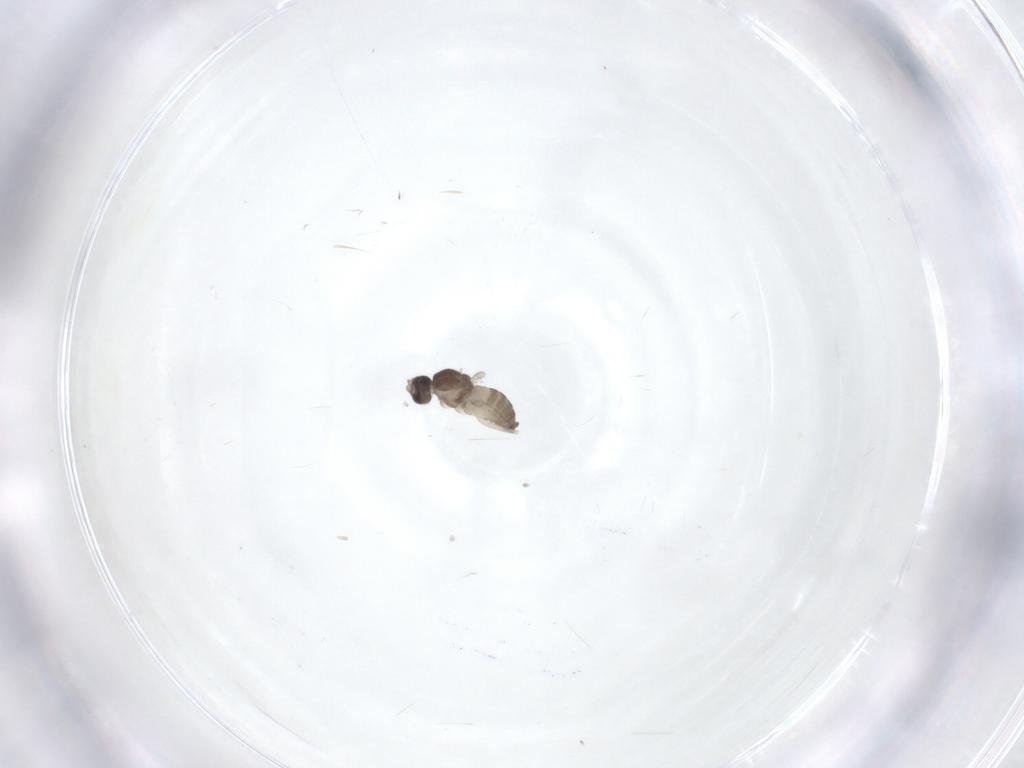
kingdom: Animalia
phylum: Arthropoda
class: Insecta
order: Diptera
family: Cecidomyiidae
